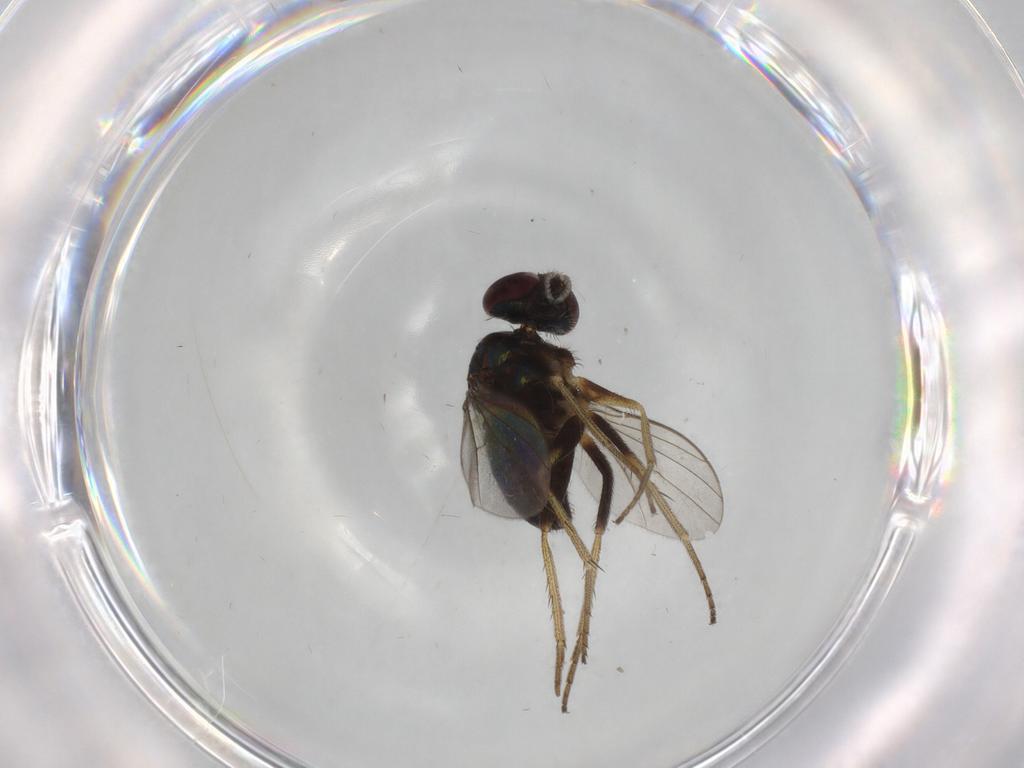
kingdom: Animalia
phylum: Arthropoda
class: Insecta
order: Diptera
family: Dolichopodidae
